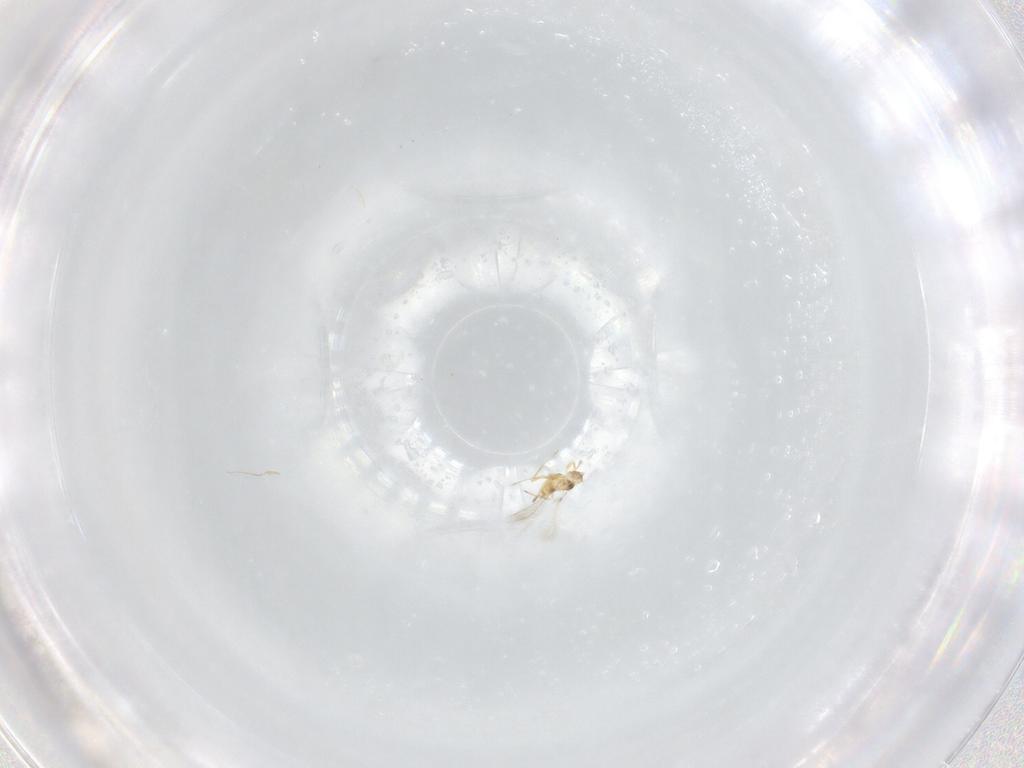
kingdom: Animalia
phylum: Arthropoda
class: Insecta
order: Hymenoptera
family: Mymaridae
